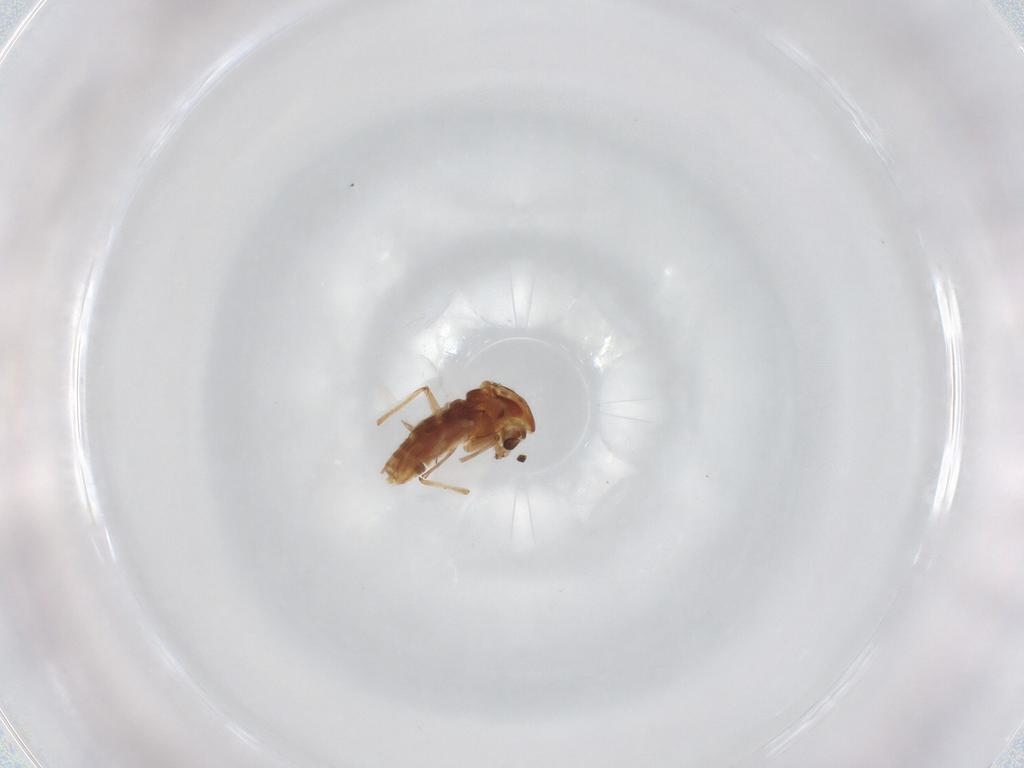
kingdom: Animalia
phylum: Arthropoda
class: Insecta
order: Diptera
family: Chironomidae
